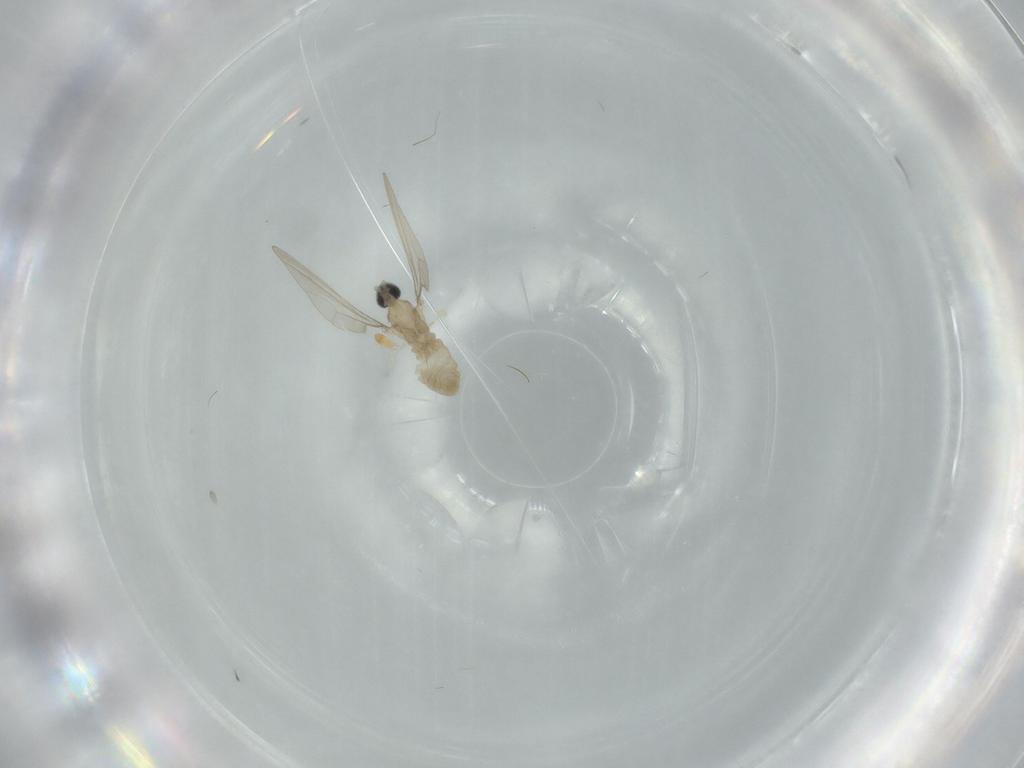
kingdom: Animalia
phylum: Arthropoda
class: Insecta
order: Diptera
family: Cecidomyiidae
